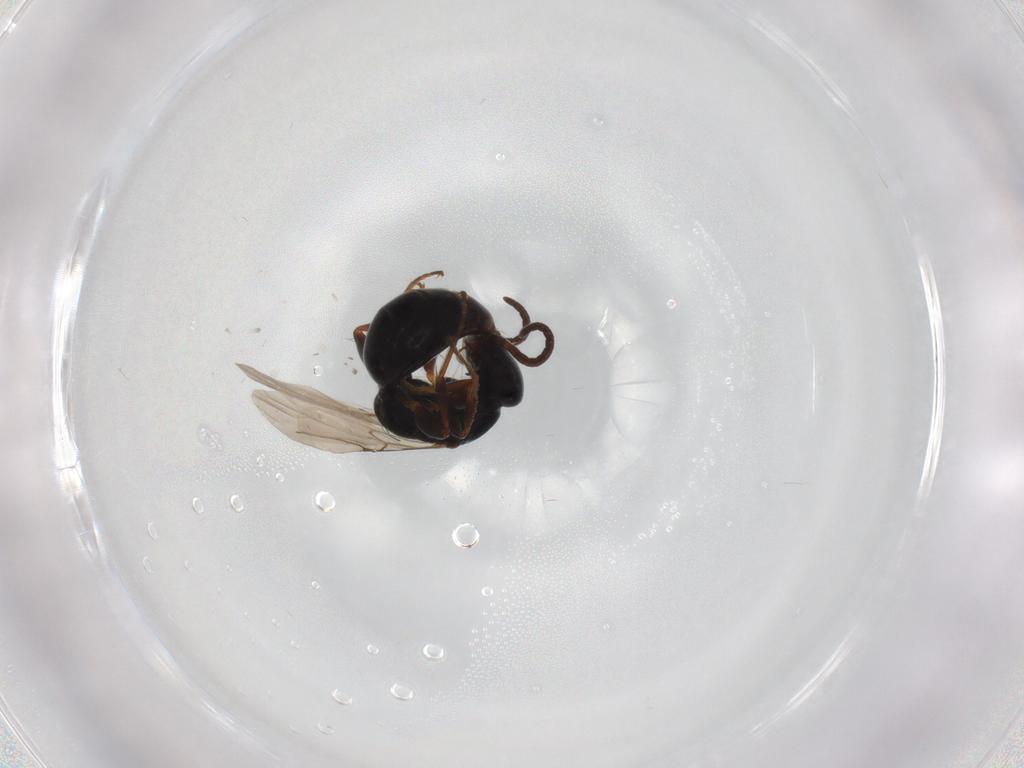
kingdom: Animalia
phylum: Arthropoda
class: Insecta
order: Hymenoptera
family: Bethylidae
